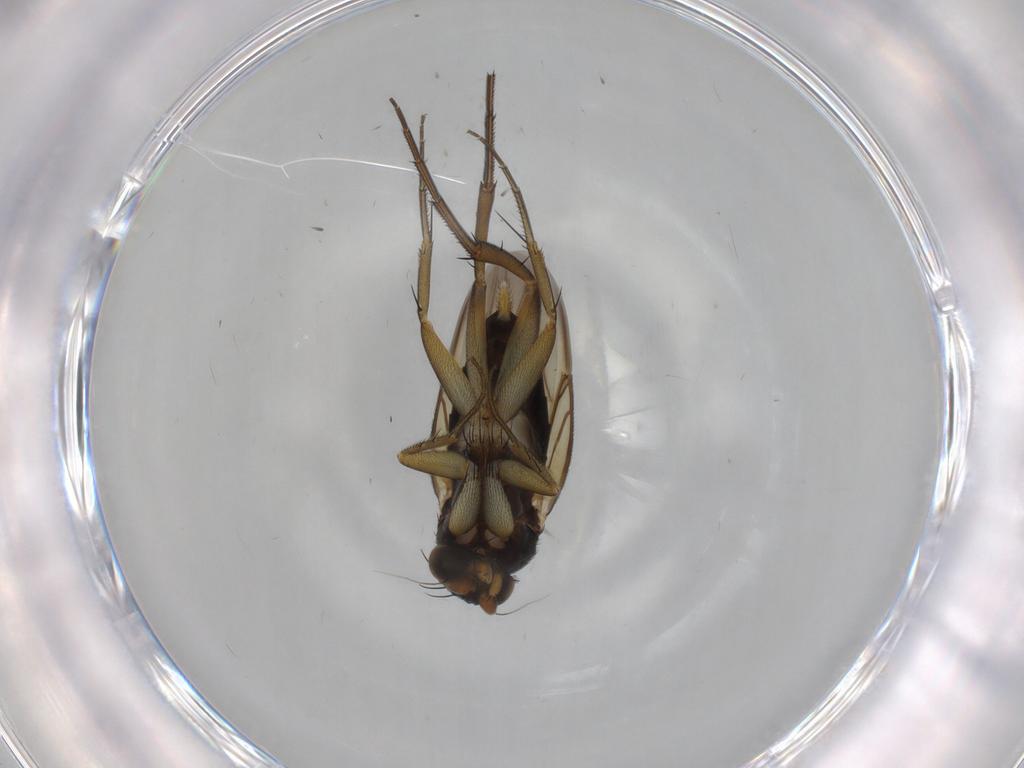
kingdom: Animalia
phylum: Arthropoda
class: Insecta
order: Diptera
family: Phoridae
